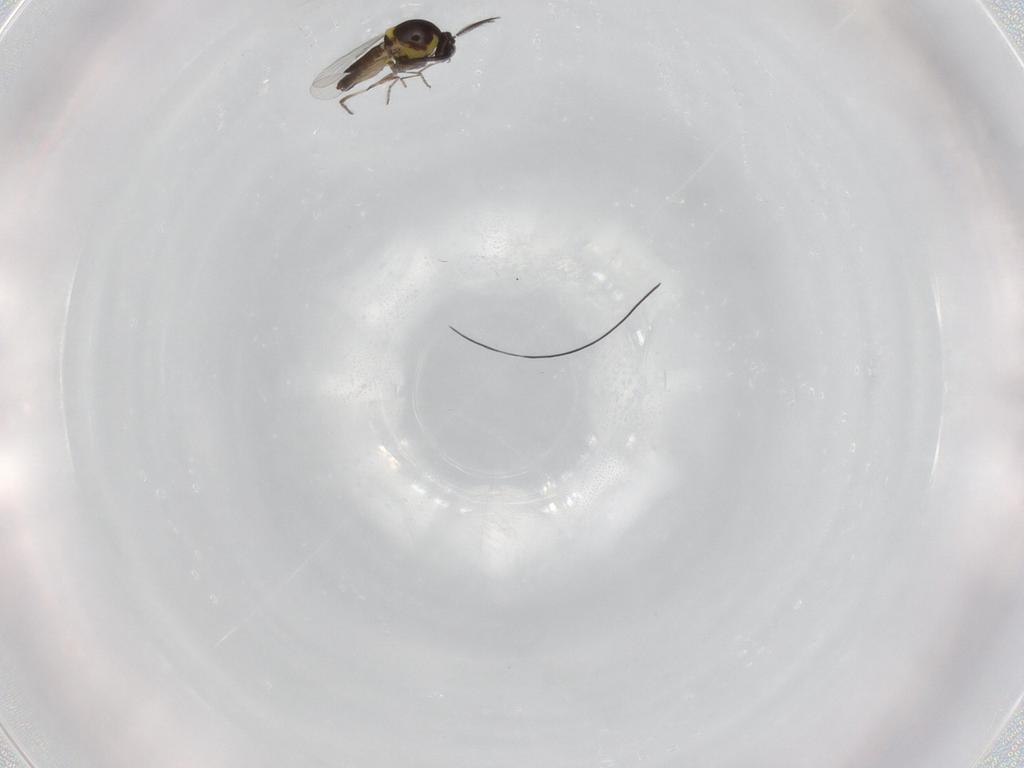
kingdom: Animalia
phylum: Arthropoda
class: Insecta
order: Diptera
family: Ceratopogonidae
